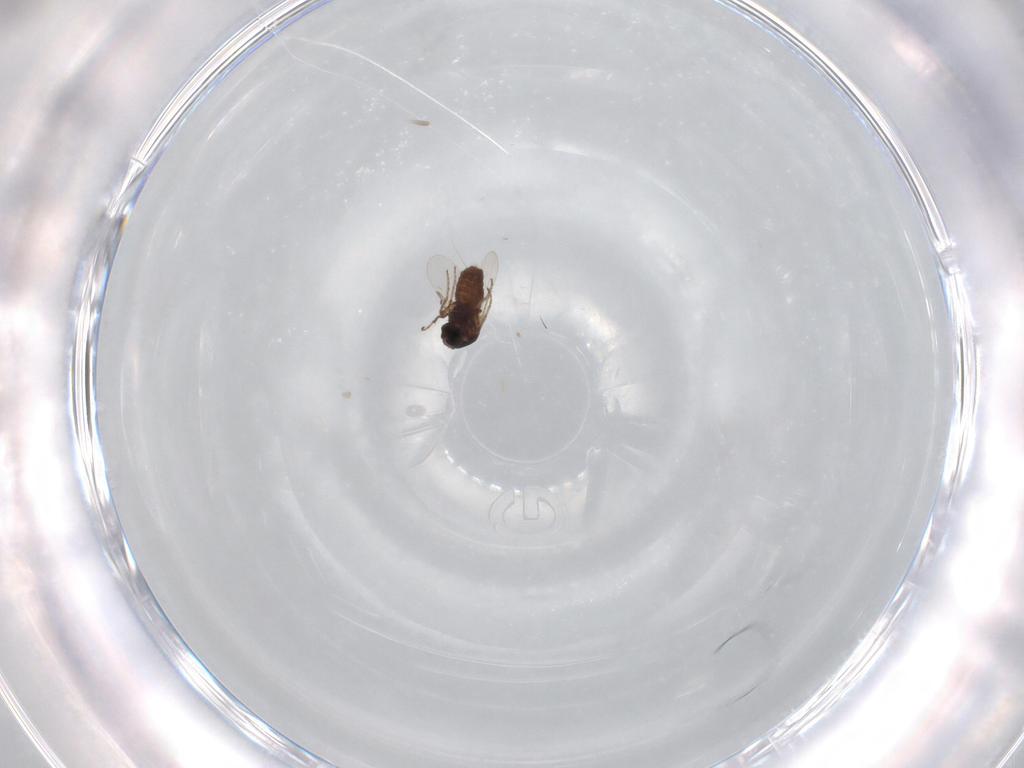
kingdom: Animalia
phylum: Arthropoda
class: Insecta
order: Diptera
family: Ceratopogonidae
